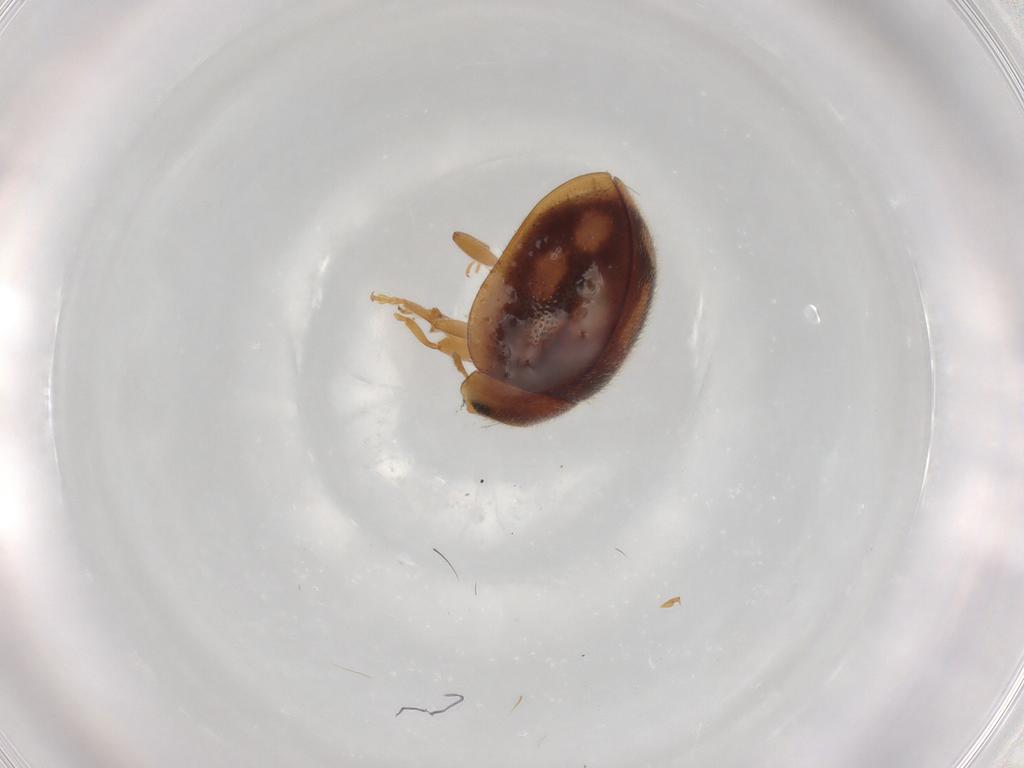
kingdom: Animalia
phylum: Arthropoda
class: Insecta
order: Coleoptera
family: Coccinellidae
